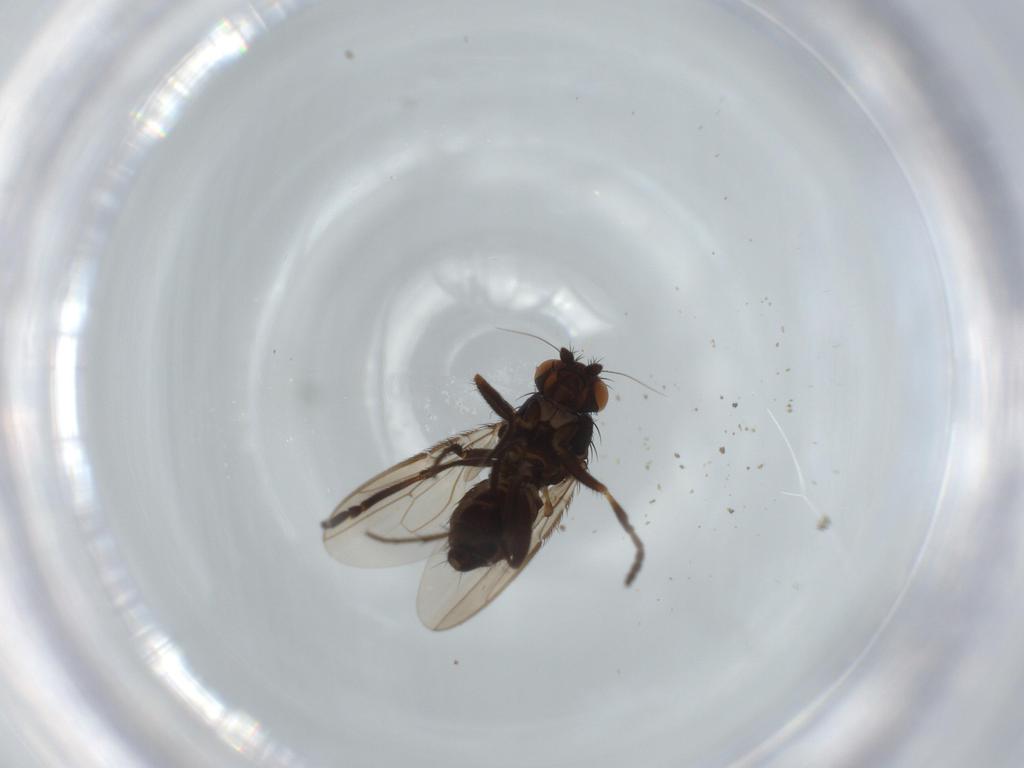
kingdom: Animalia
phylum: Arthropoda
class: Insecta
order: Diptera
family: Sphaeroceridae
